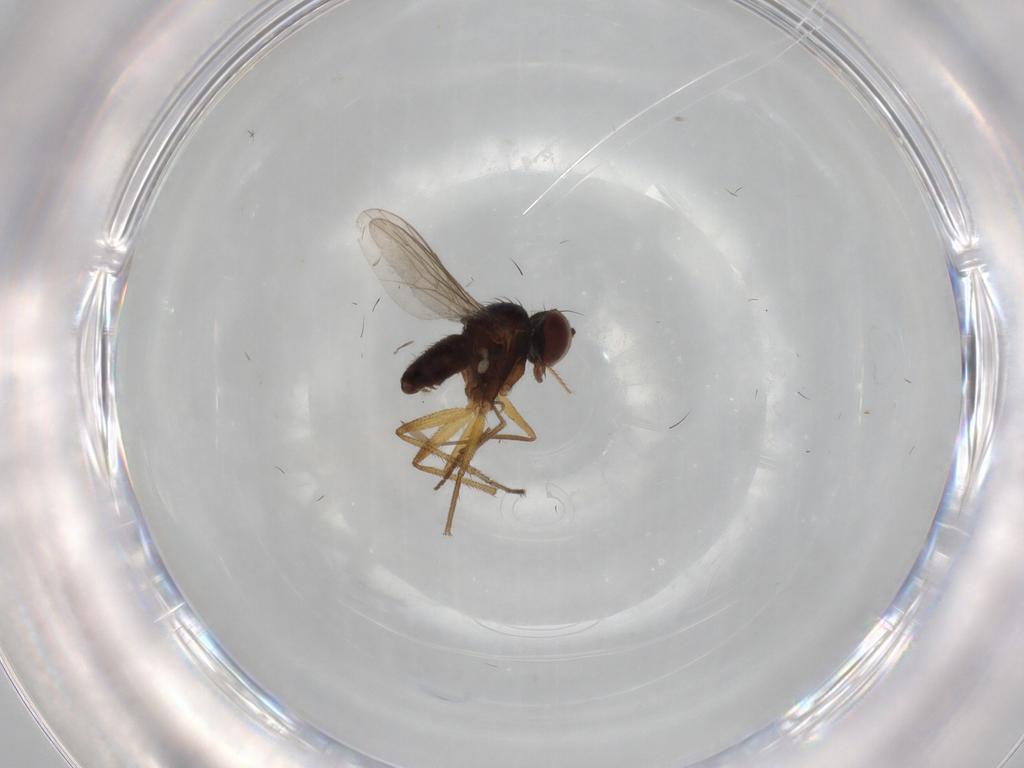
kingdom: Animalia
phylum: Arthropoda
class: Insecta
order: Diptera
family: Dolichopodidae
